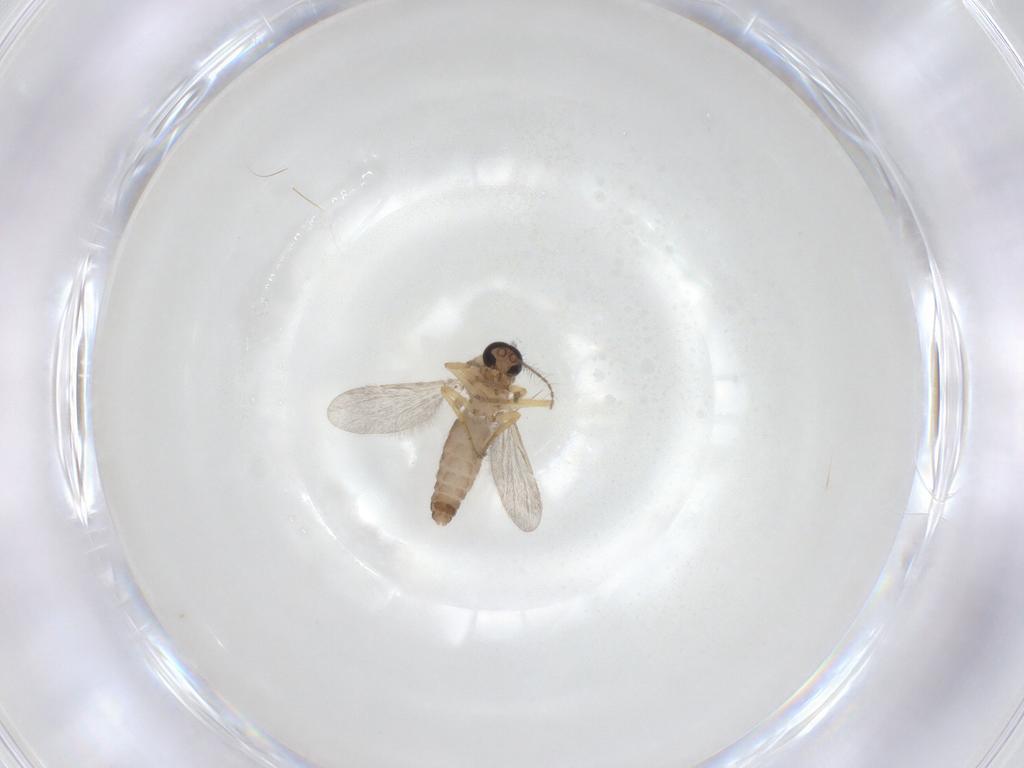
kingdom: Animalia
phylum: Arthropoda
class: Insecta
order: Diptera
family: Ceratopogonidae
